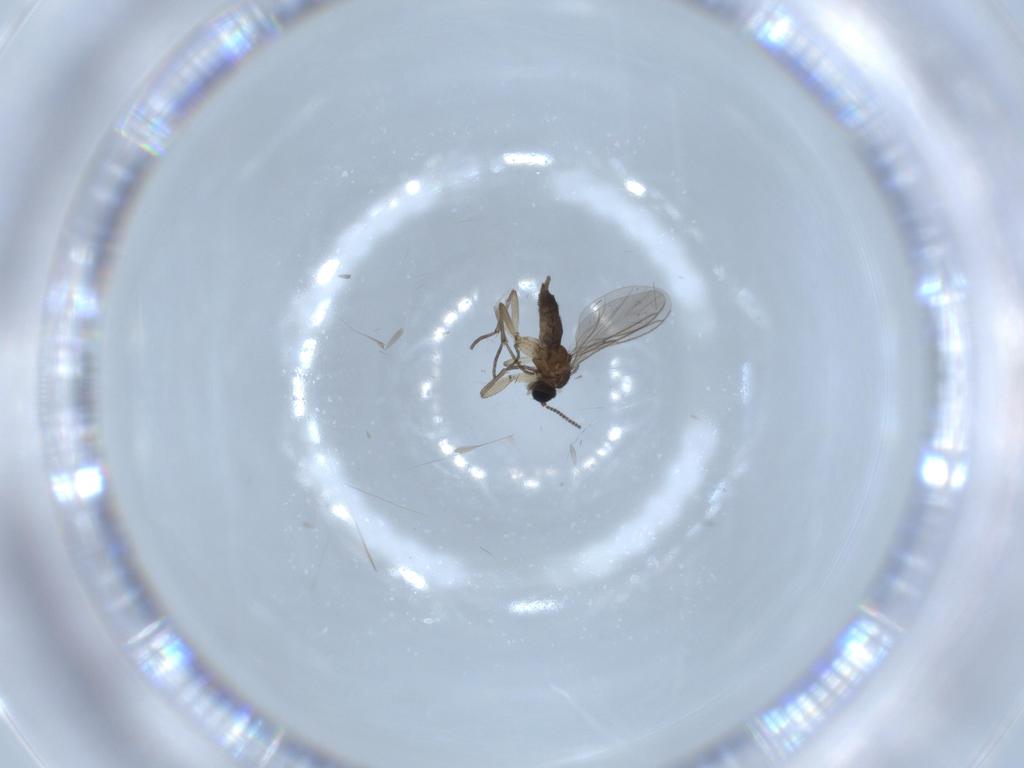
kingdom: Animalia
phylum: Arthropoda
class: Insecta
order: Diptera
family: Sciaridae
